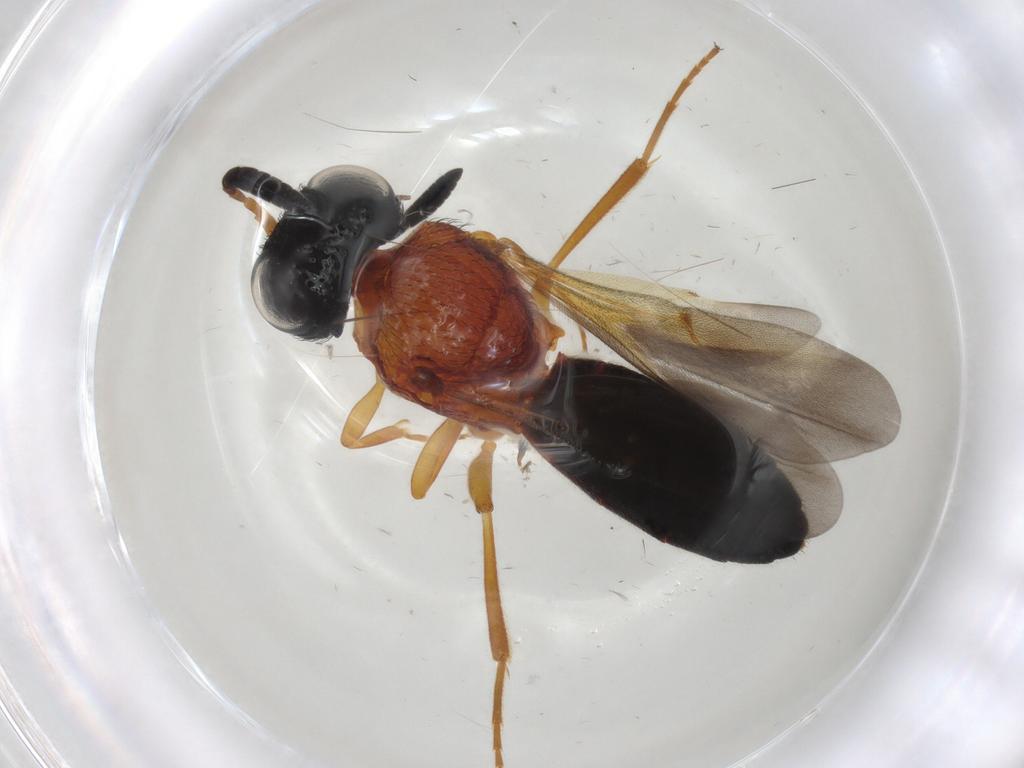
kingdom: Animalia
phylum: Arthropoda
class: Insecta
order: Hymenoptera
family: Scelionidae
